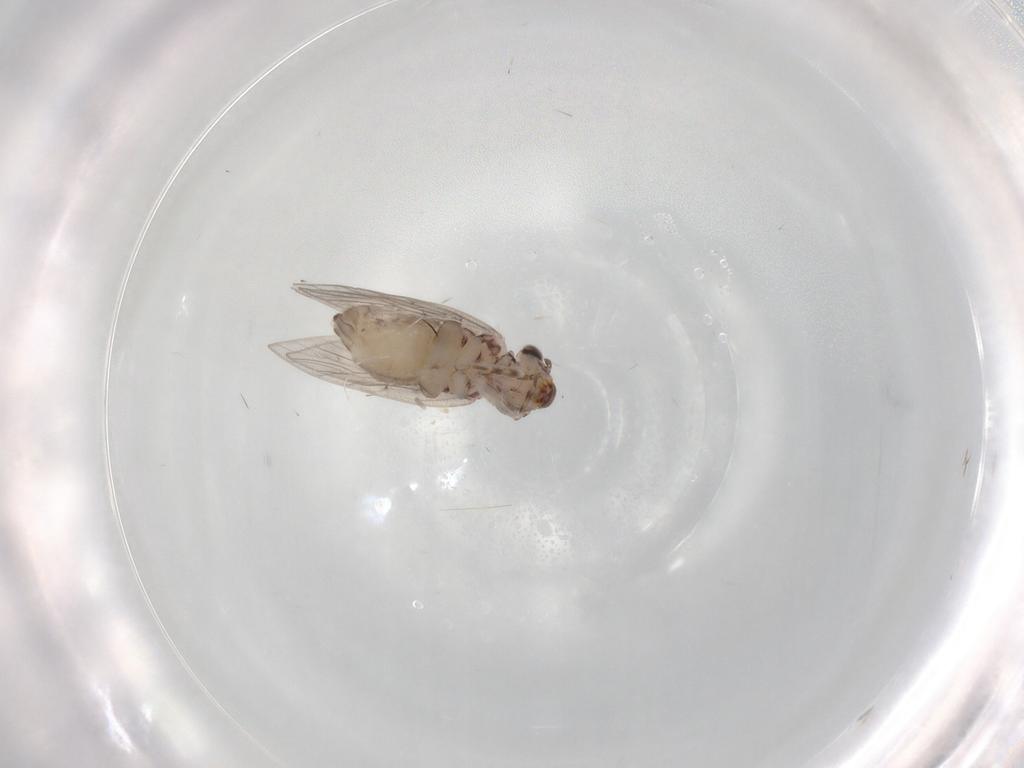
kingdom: Animalia
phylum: Arthropoda
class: Insecta
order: Psocodea
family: Lepidopsocidae
